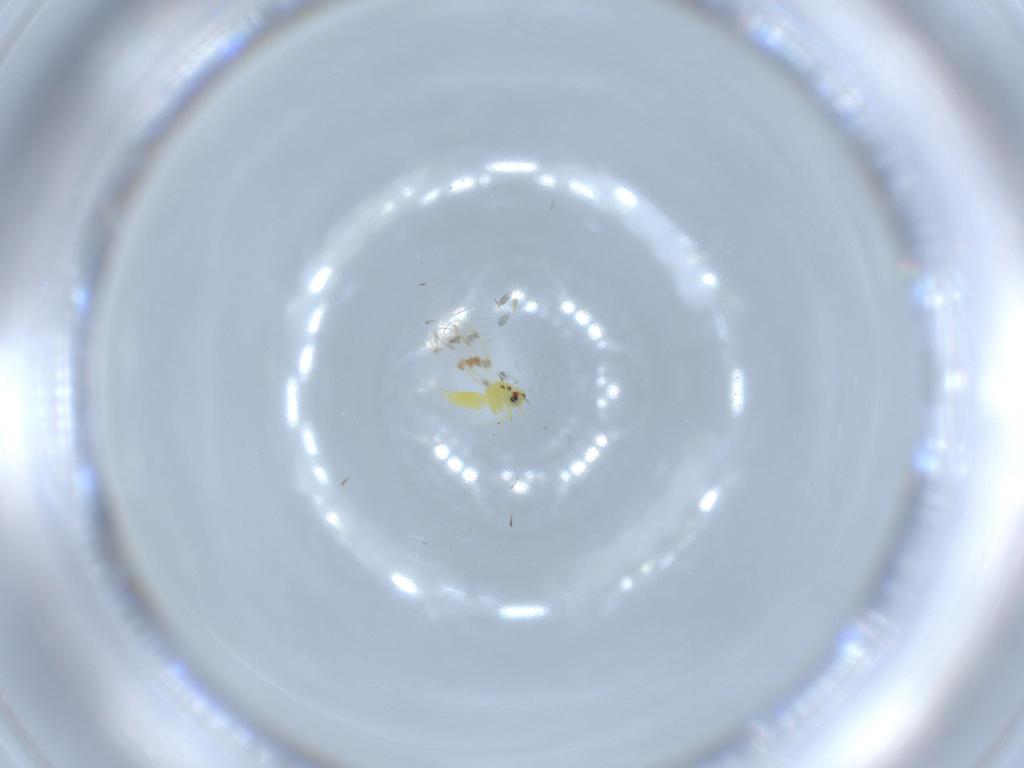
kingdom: Animalia
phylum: Arthropoda
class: Insecta
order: Hemiptera
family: Aleyrodidae
